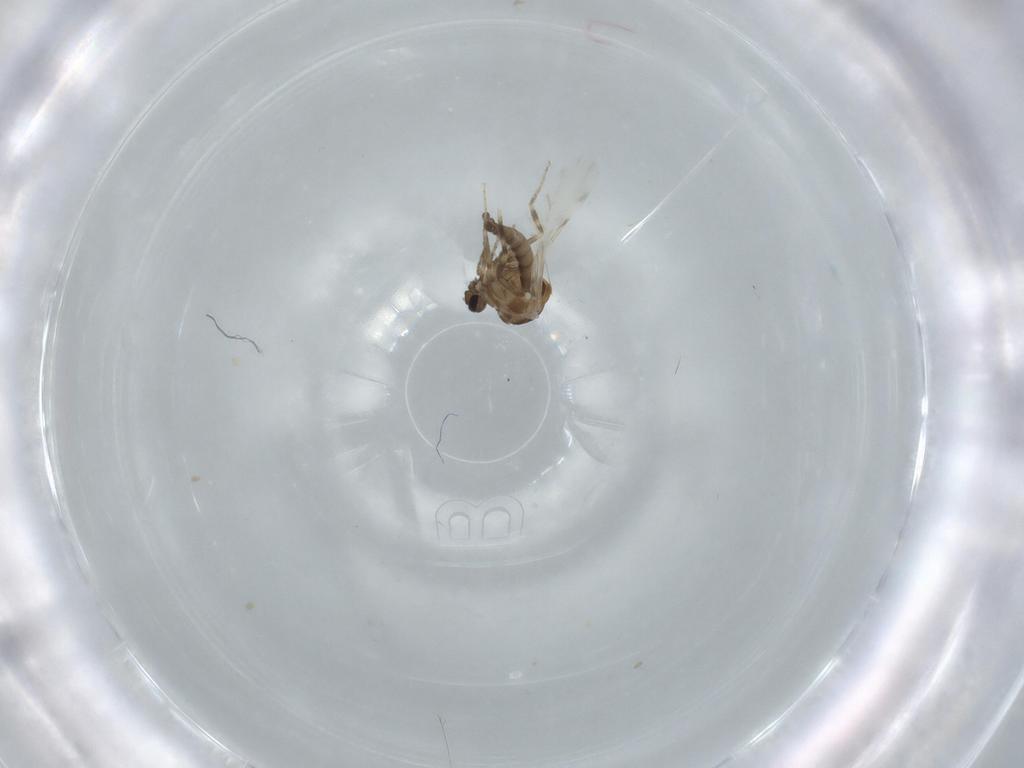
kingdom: Animalia
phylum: Arthropoda
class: Insecta
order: Diptera
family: Ceratopogonidae
